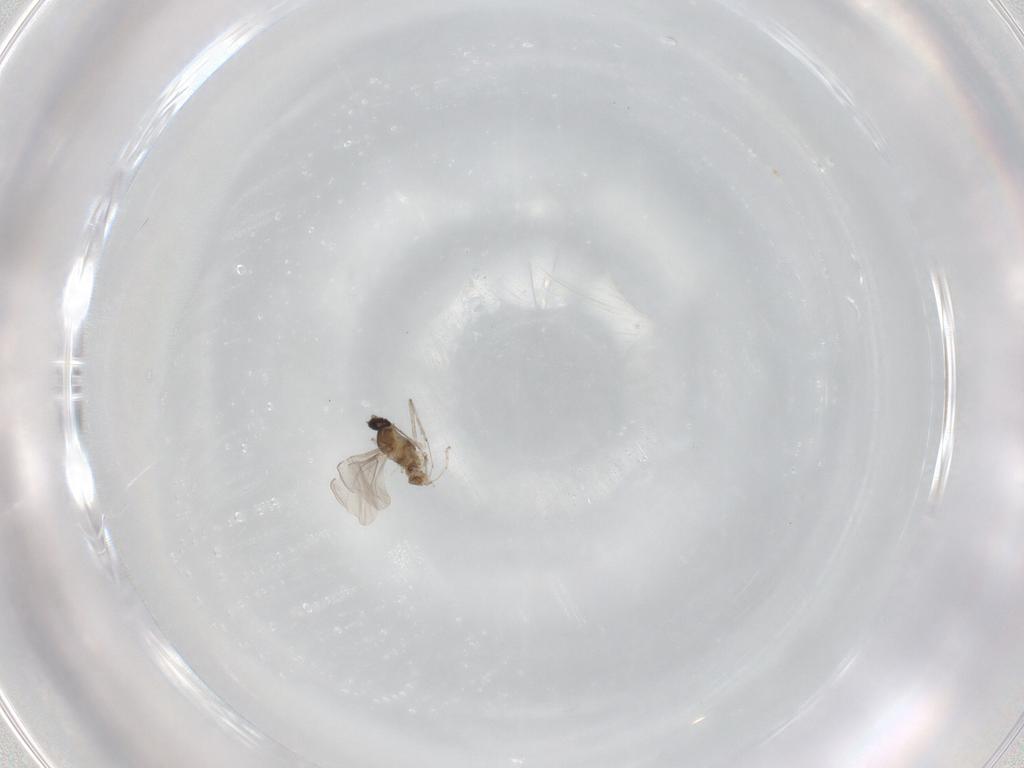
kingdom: Animalia
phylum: Arthropoda
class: Insecta
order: Diptera
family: Cecidomyiidae
